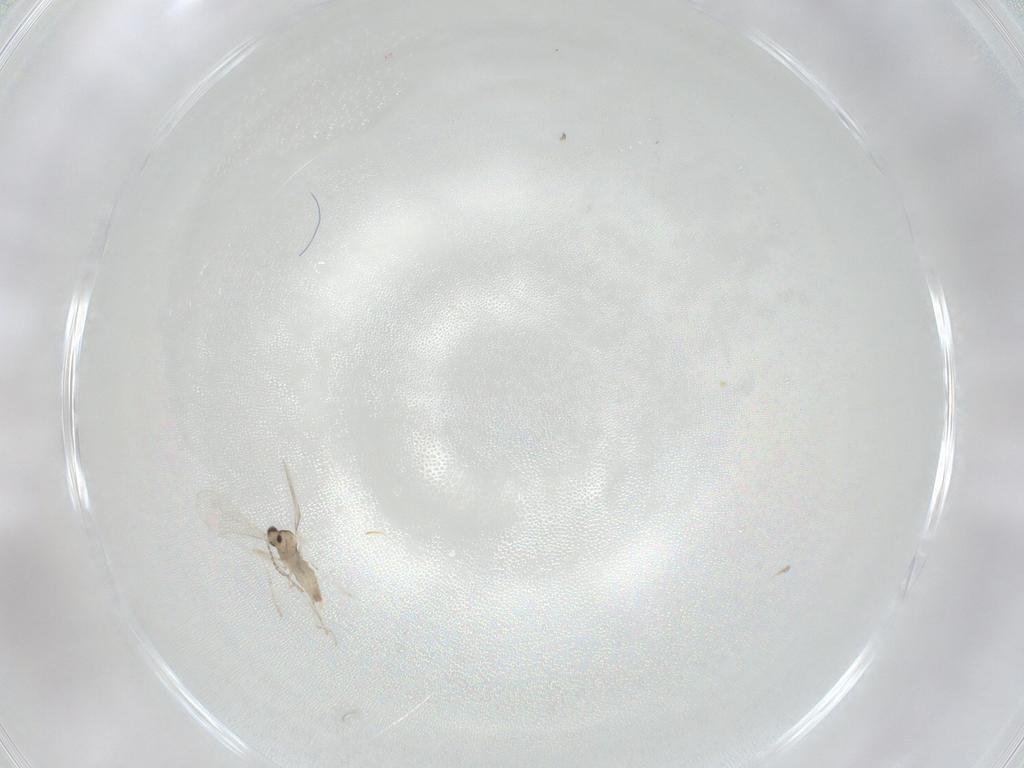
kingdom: Animalia
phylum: Arthropoda
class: Insecta
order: Diptera
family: Cecidomyiidae
